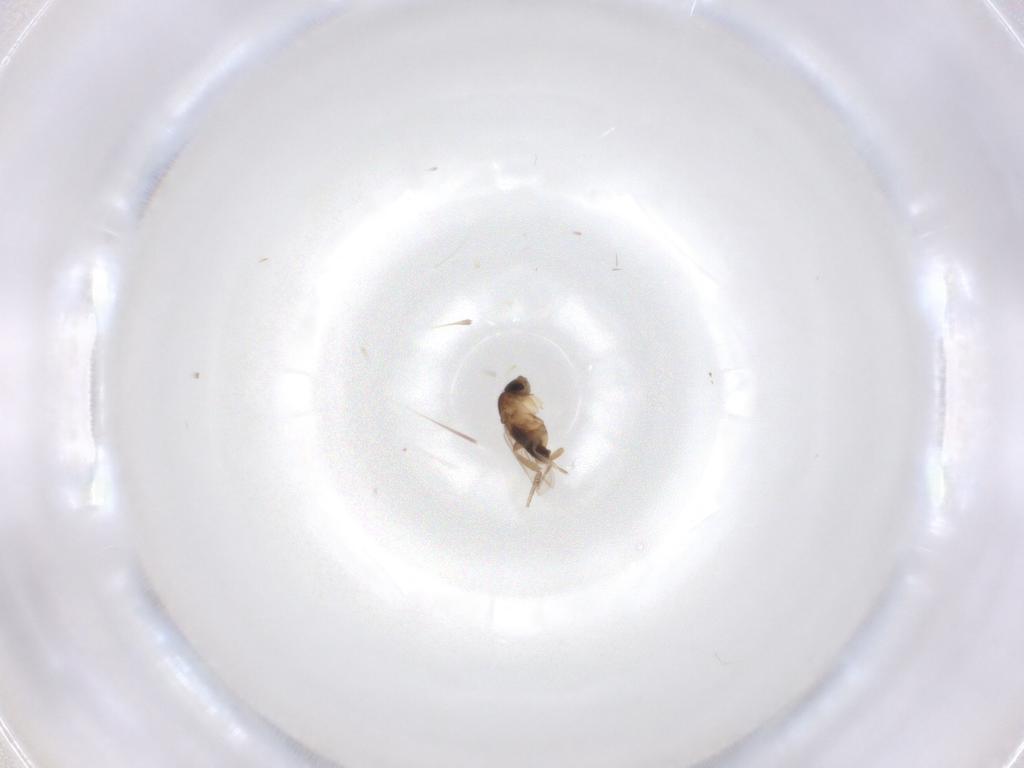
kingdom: Animalia
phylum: Arthropoda
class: Insecta
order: Diptera
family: Phoridae
